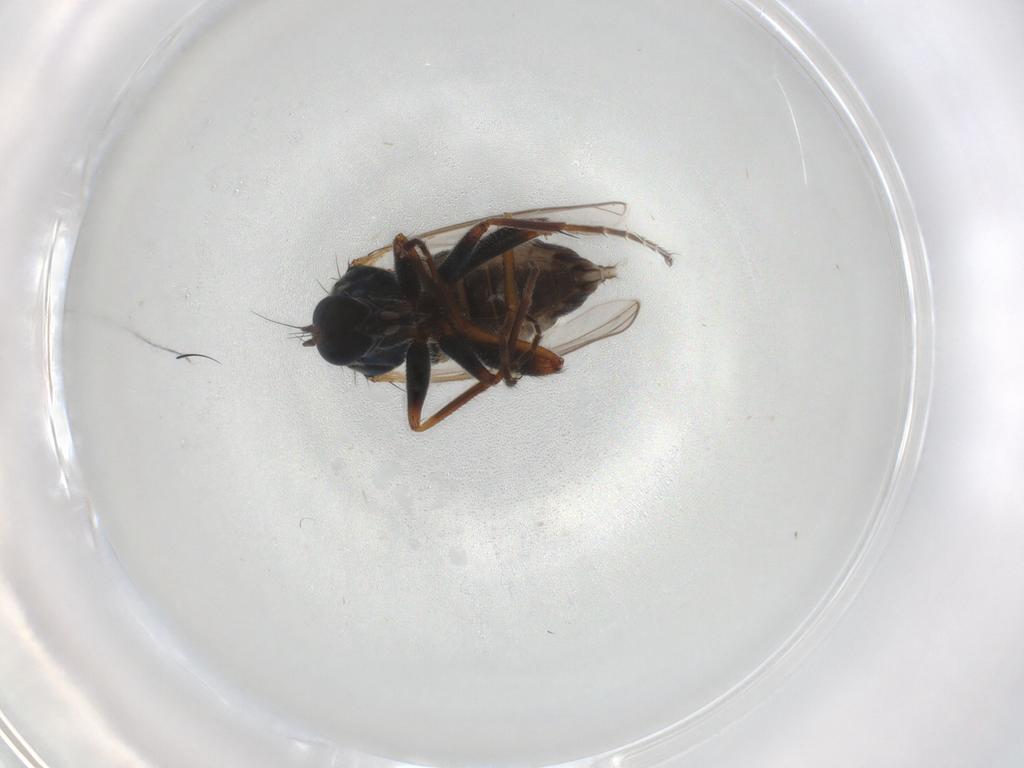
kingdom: Animalia
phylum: Arthropoda
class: Insecta
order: Diptera
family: Hybotidae
